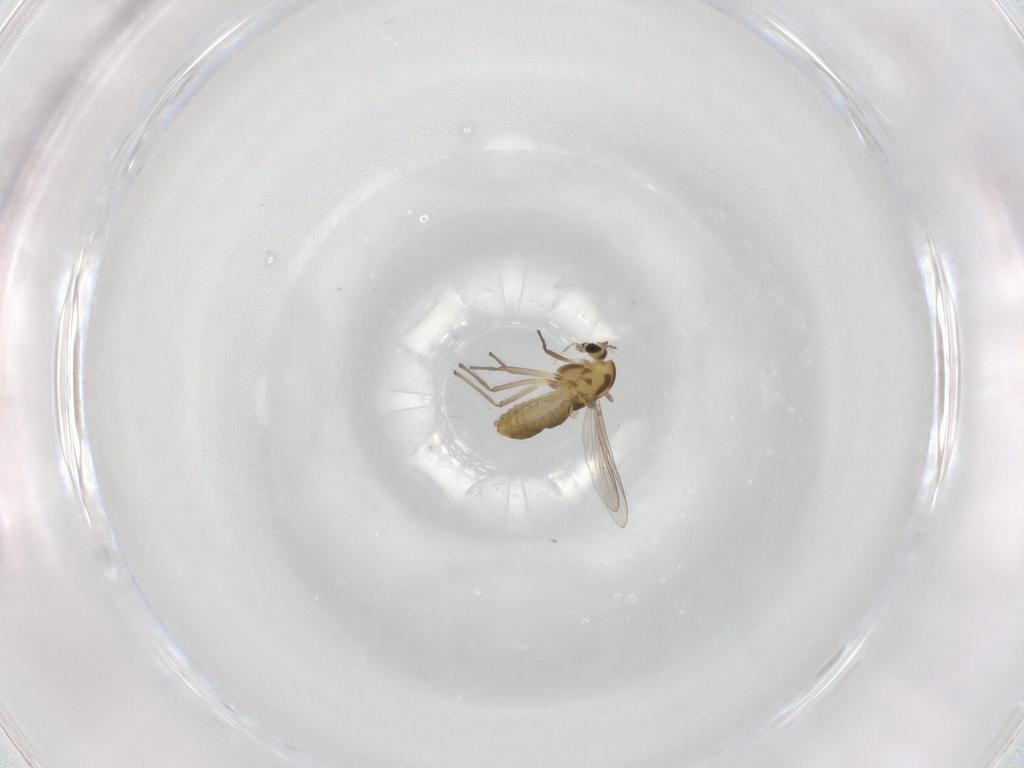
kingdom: Animalia
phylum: Arthropoda
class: Insecta
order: Diptera
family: Chironomidae
